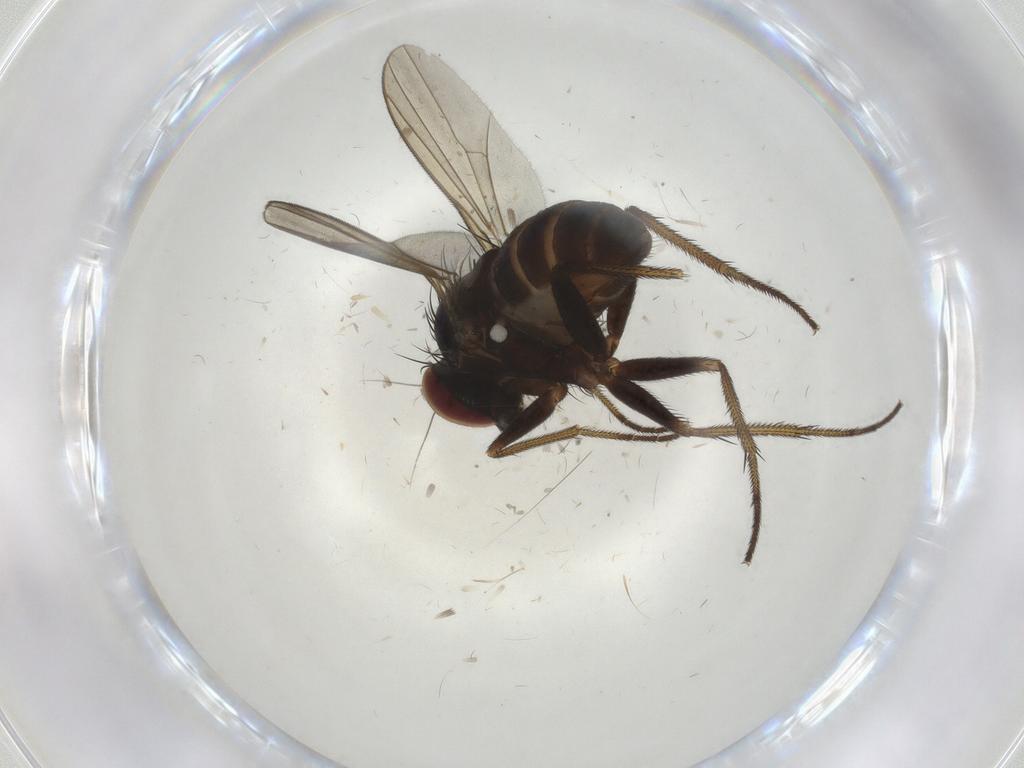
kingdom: Animalia
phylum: Arthropoda
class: Insecta
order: Diptera
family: Dolichopodidae
